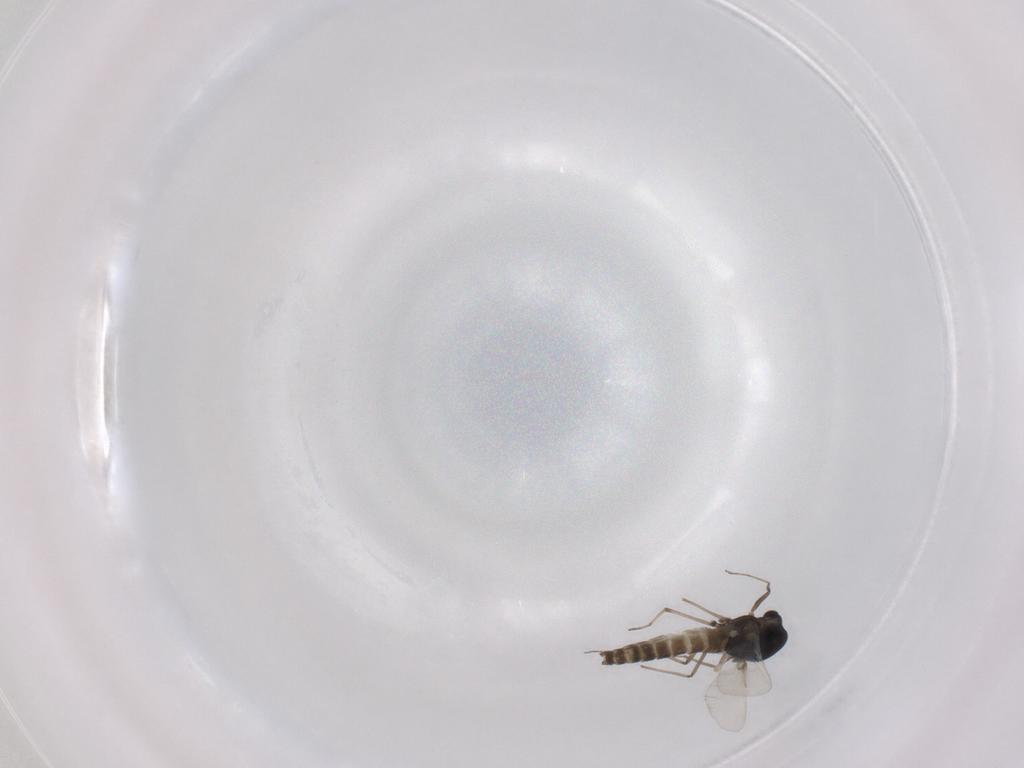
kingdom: Animalia
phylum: Arthropoda
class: Insecta
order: Diptera
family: Chironomidae
